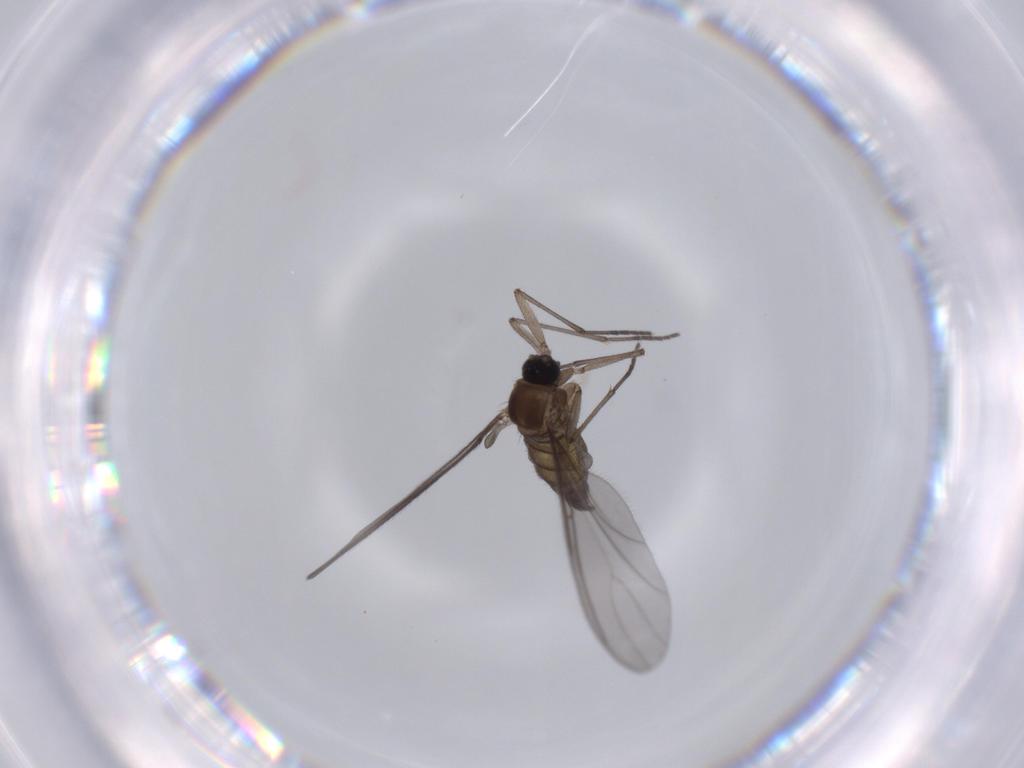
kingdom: Animalia
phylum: Arthropoda
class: Insecta
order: Diptera
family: Sciaridae
